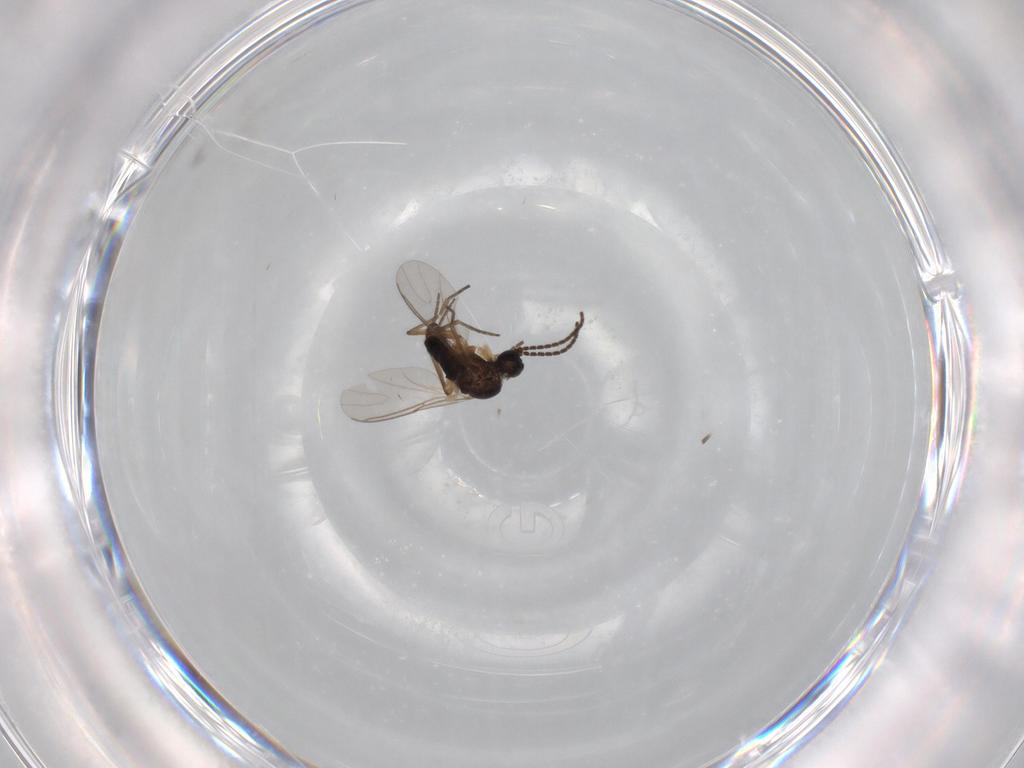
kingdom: Animalia
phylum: Arthropoda
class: Insecta
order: Diptera
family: Sciaridae
